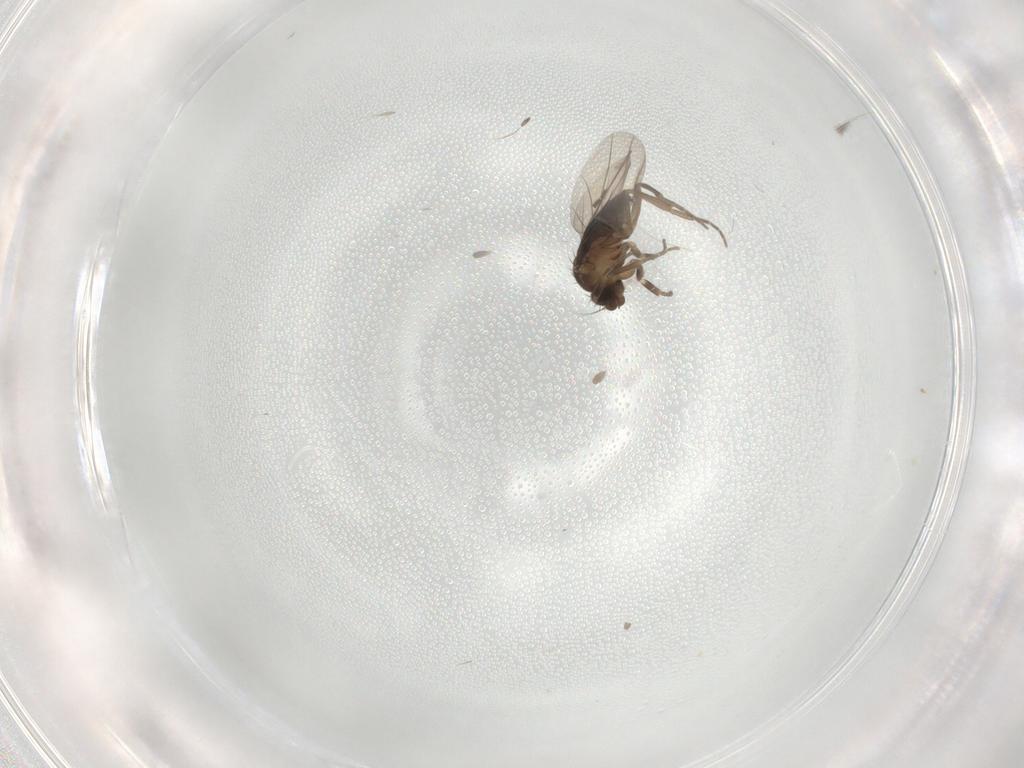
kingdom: Animalia
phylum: Arthropoda
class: Insecta
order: Diptera
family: Phoridae
